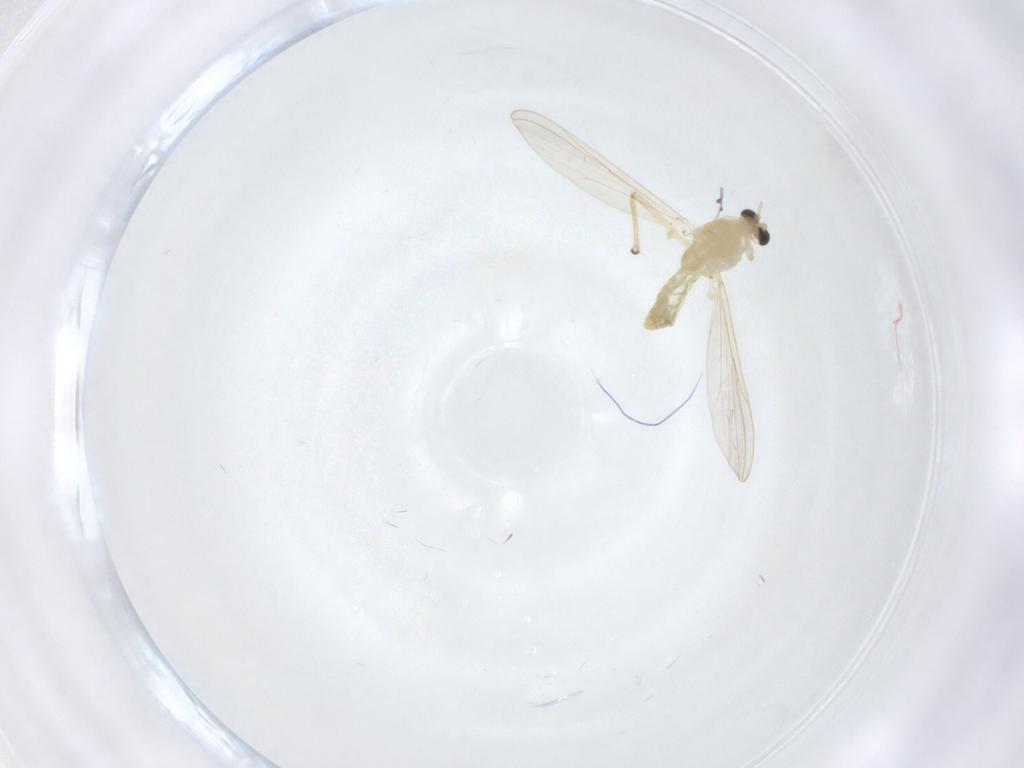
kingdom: Animalia
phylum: Arthropoda
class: Insecta
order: Diptera
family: Chironomidae
